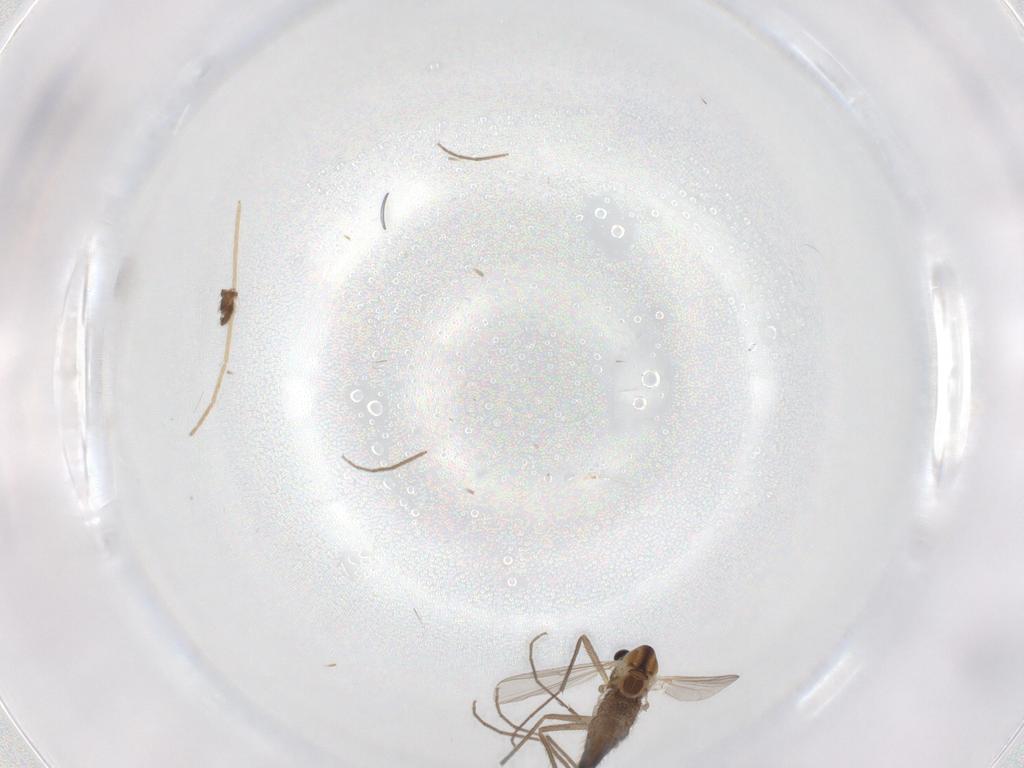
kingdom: Animalia
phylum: Arthropoda
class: Insecta
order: Diptera
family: Chironomidae
